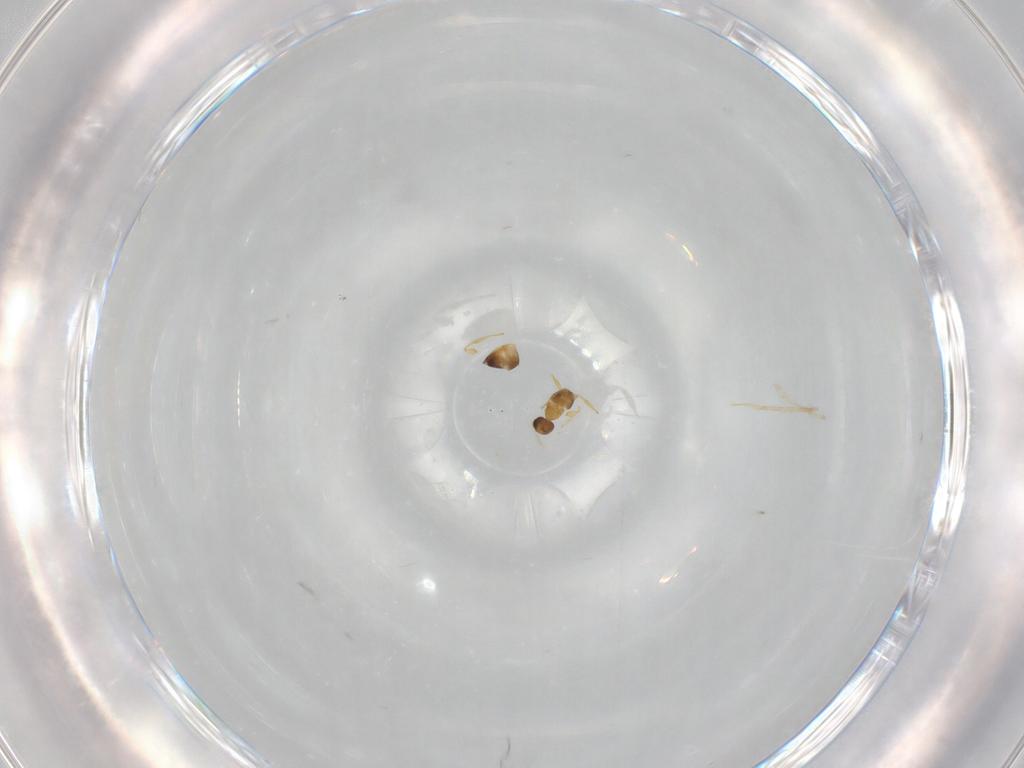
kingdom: Animalia
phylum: Arthropoda
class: Insecta
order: Hymenoptera
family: Mymaridae
